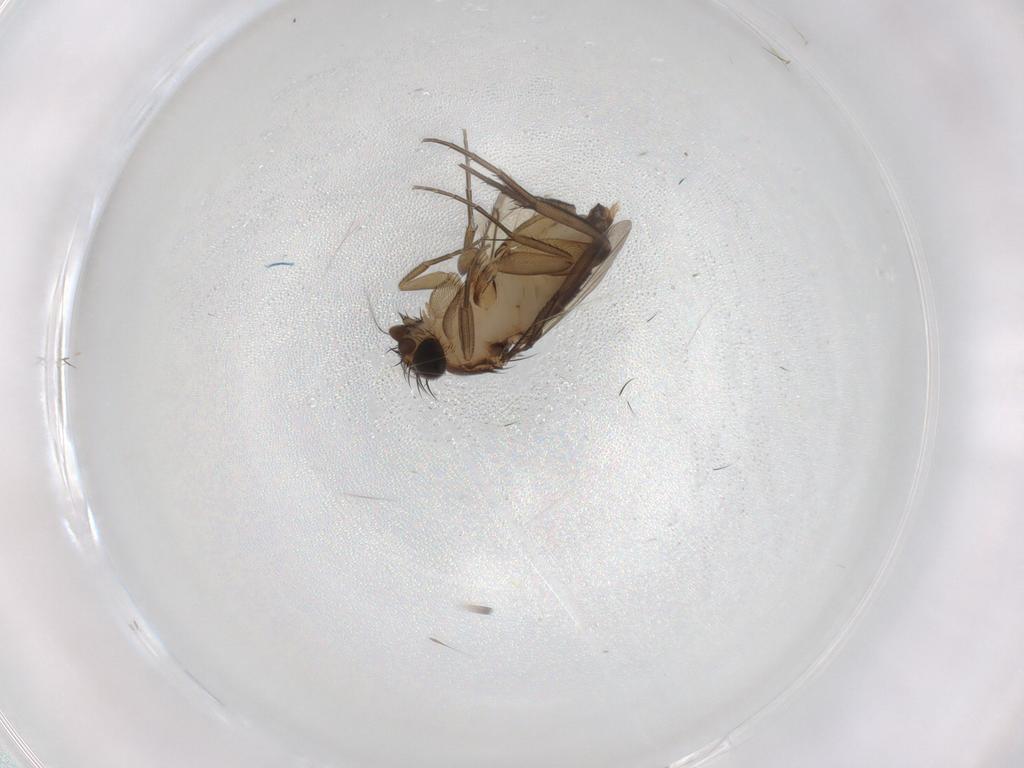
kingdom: Animalia
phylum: Arthropoda
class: Insecta
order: Diptera
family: Phoridae
